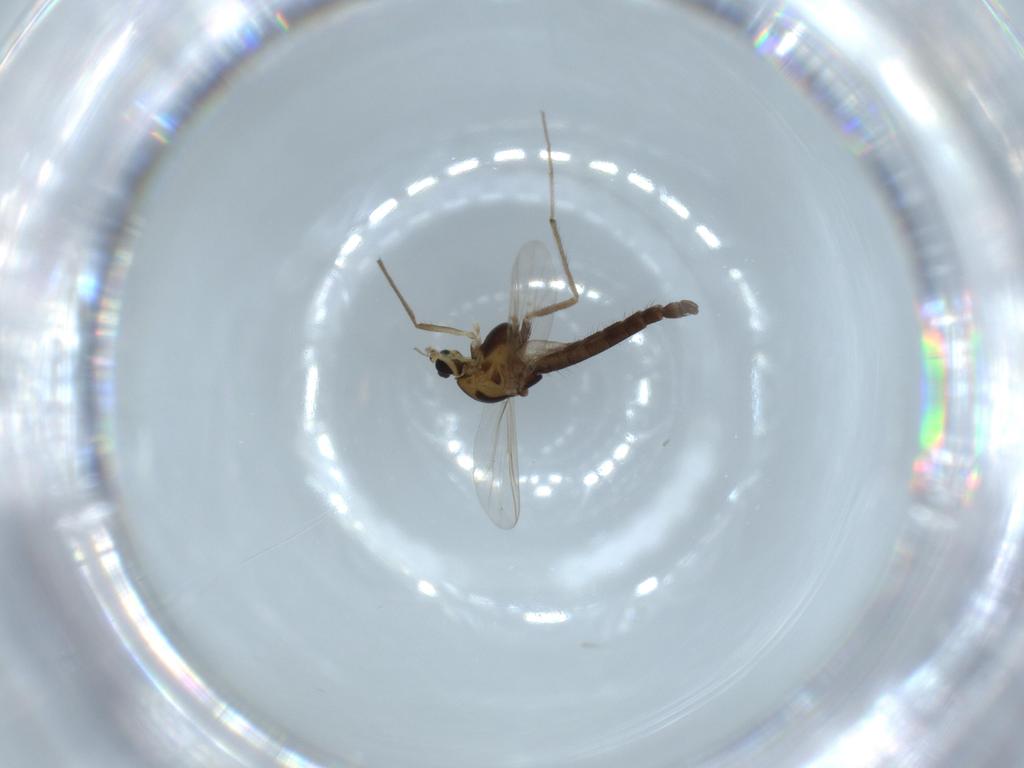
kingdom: Animalia
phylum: Arthropoda
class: Insecta
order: Diptera
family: Chironomidae
